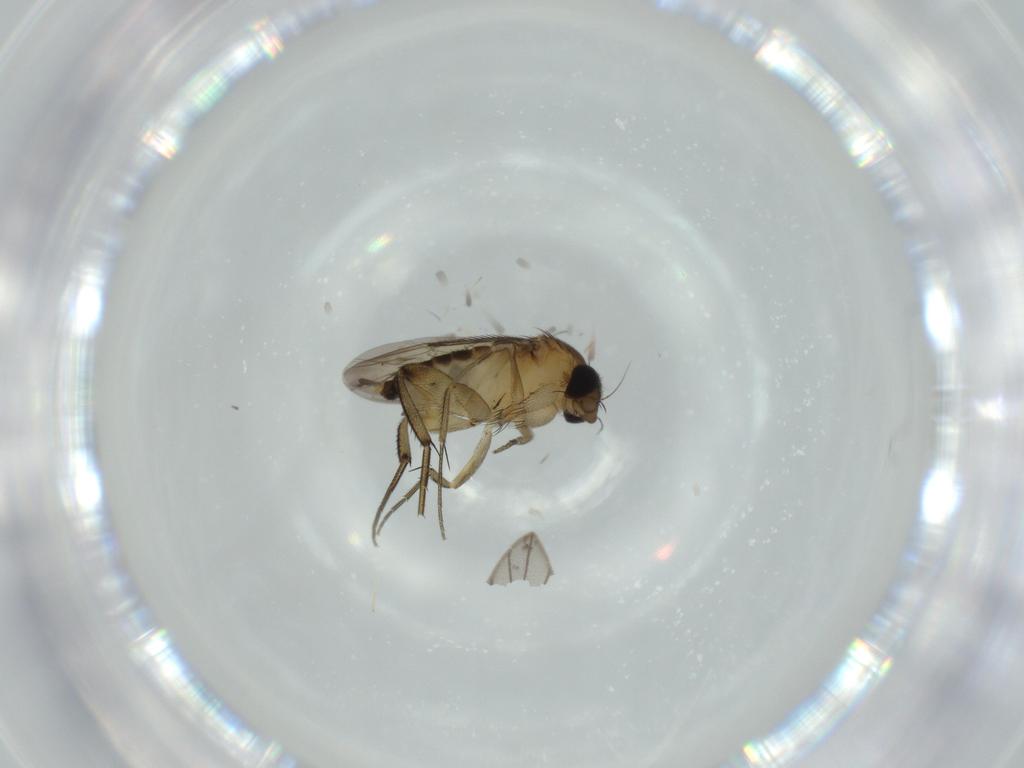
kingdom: Animalia
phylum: Arthropoda
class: Insecta
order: Diptera
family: Phoridae
